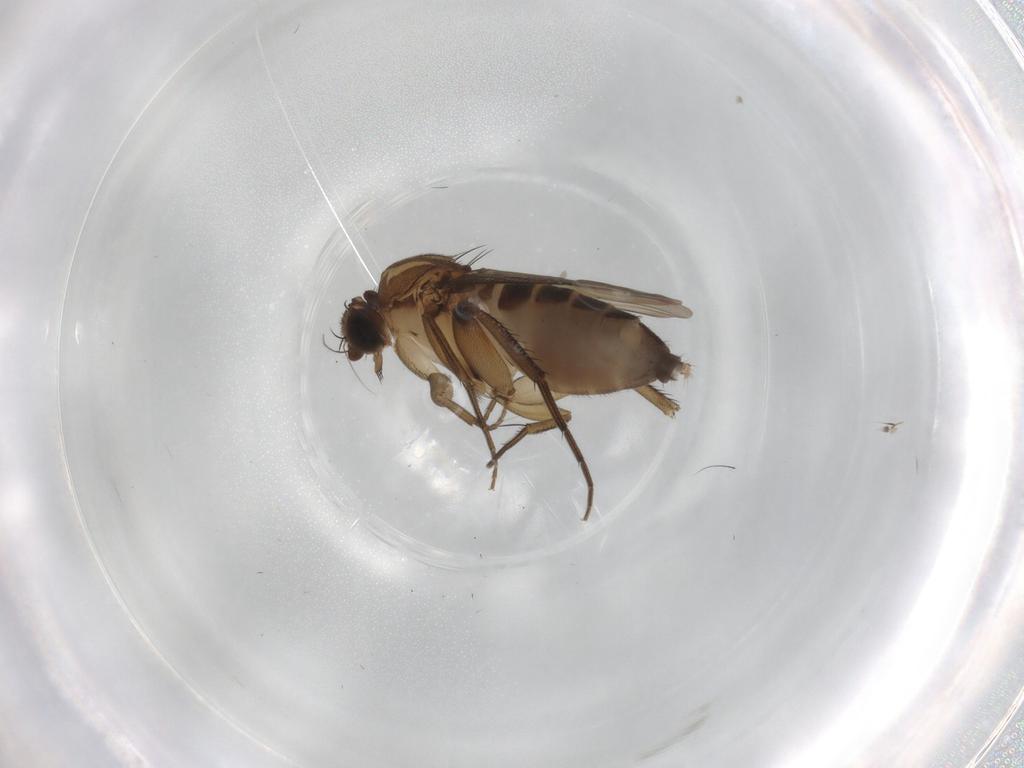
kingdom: Animalia
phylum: Arthropoda
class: Insecta
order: Diptera
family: Phoridae
